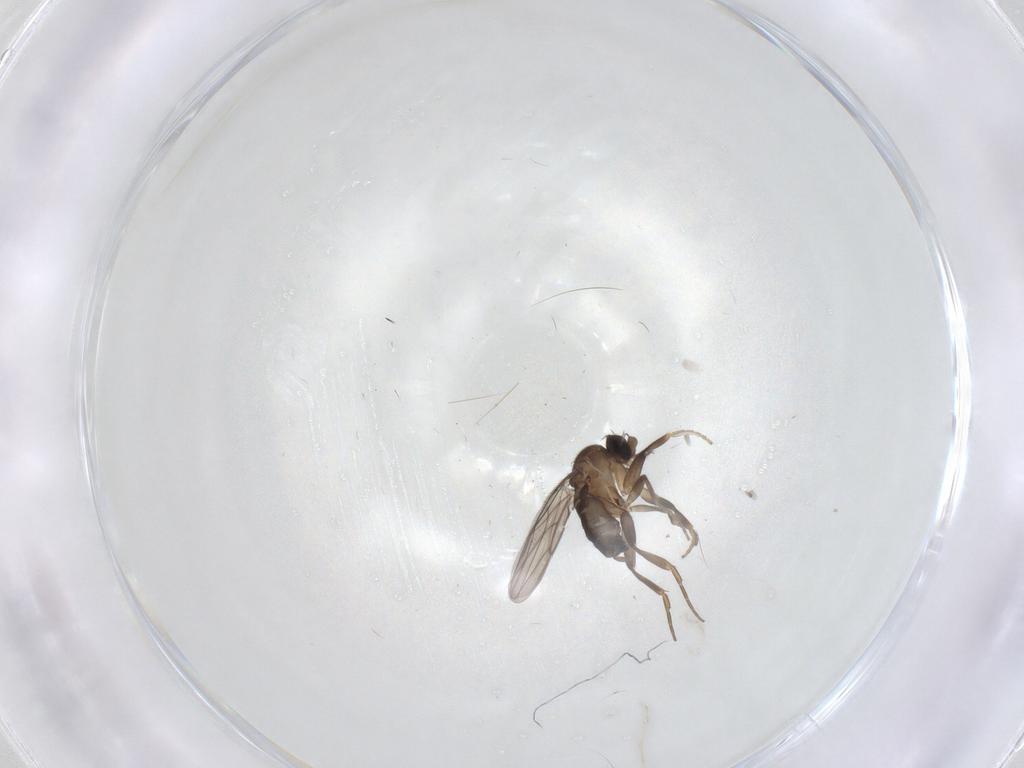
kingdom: Animalia
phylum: Arthropoda
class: Insecta
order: Diptera
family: Phoridae
